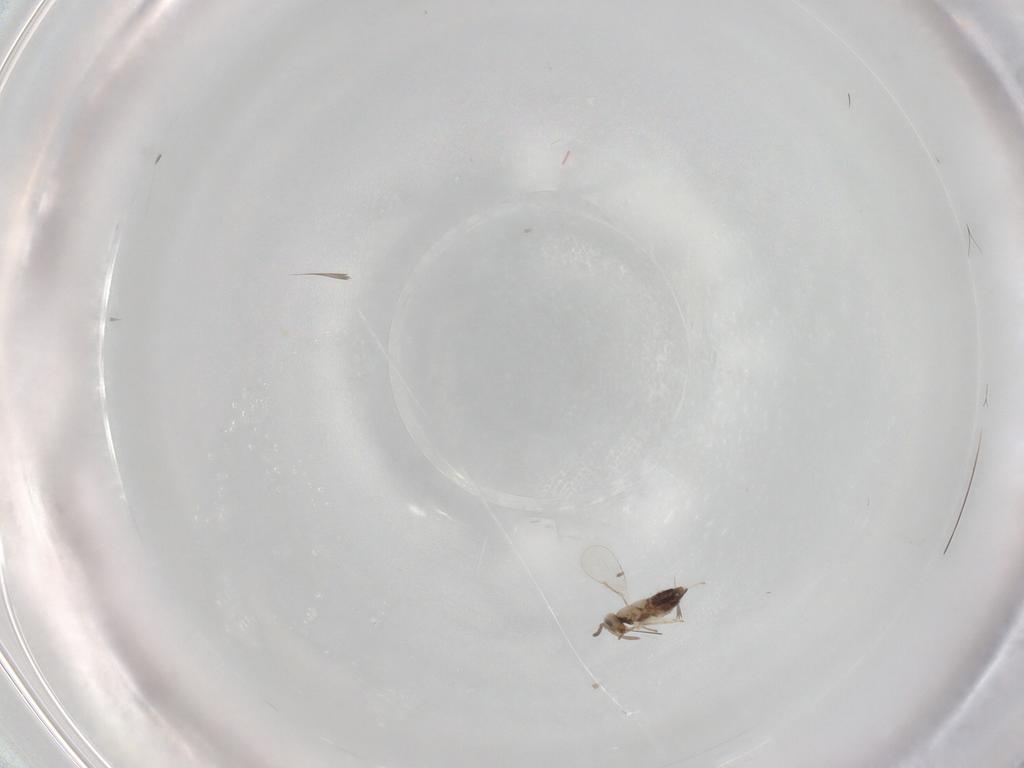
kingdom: Animalia
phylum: Arthropoda
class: Insecta
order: Hymenoptera
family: Aphelinidae
